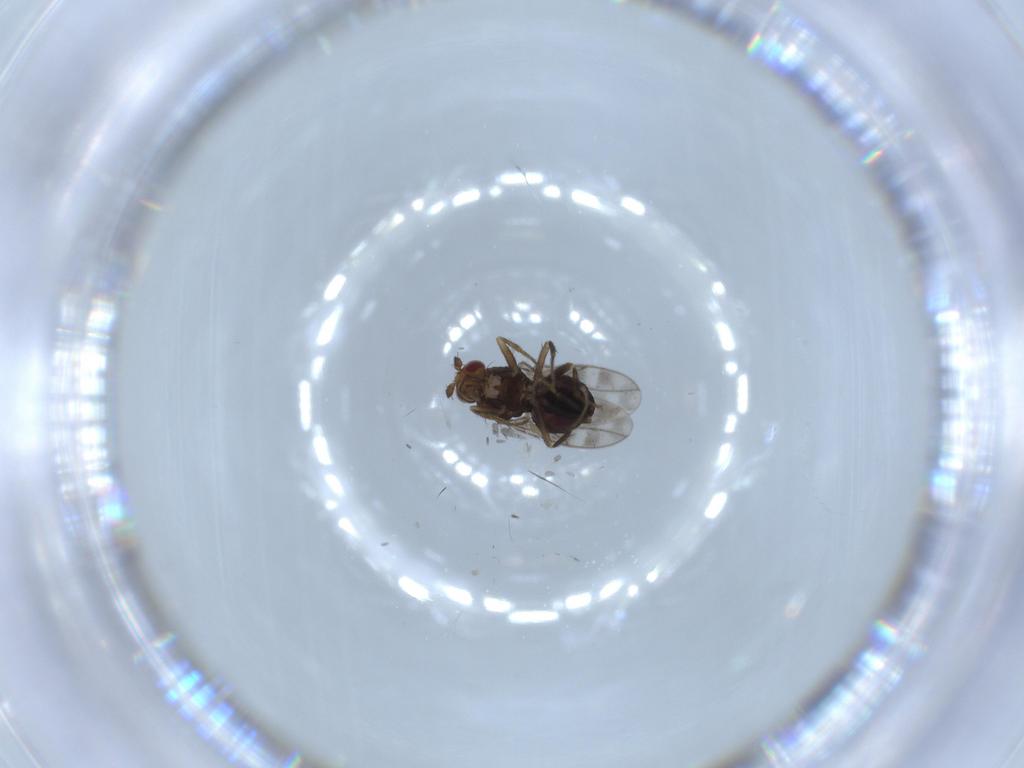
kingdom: Animalia
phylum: Arthropoda
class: Insecta
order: Diptera
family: Sphaeroceridae
